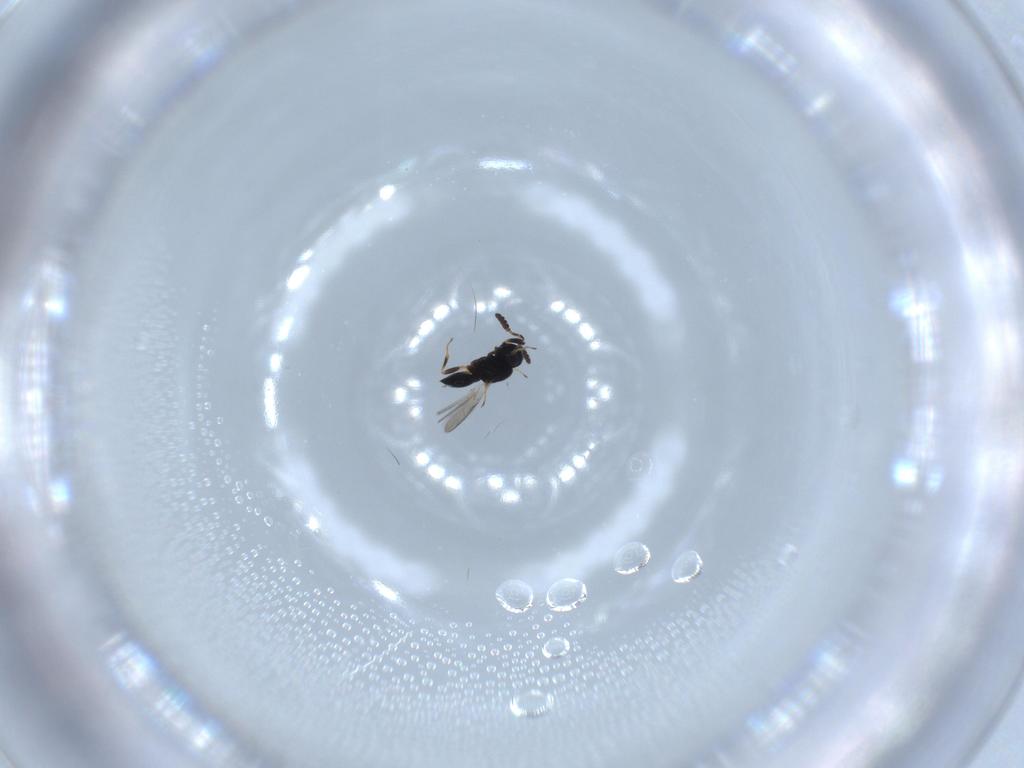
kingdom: Animalia
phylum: Arthropoda
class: Insecta
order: Hymenoptera
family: Scelionidae
